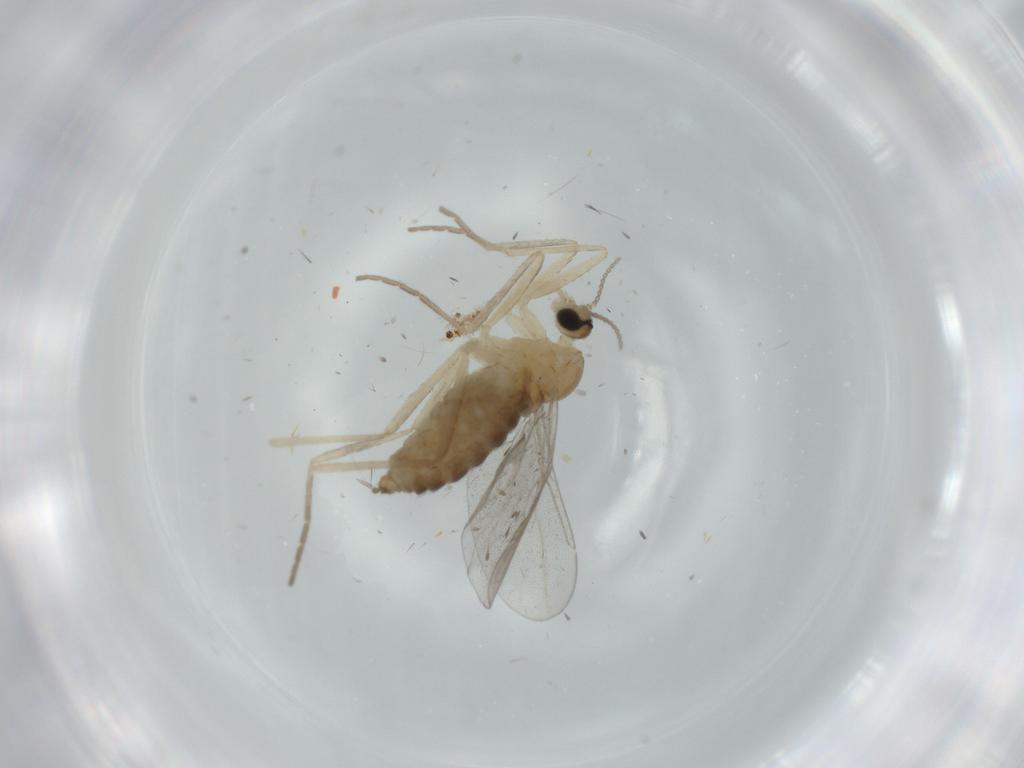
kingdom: Animalia
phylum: Arthropoda
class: Insecta
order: Diptera
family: Cecidomyiidae
